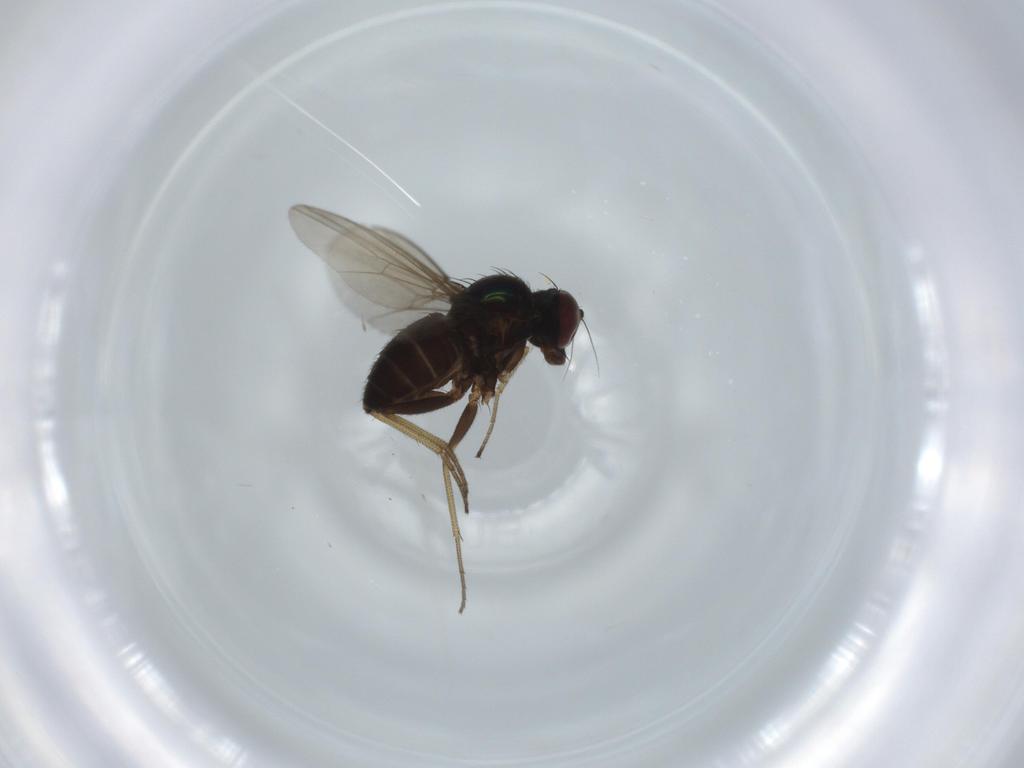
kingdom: Animalia
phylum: Arthropoda
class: Insecta
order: Diptera
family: Dolichopodidae
